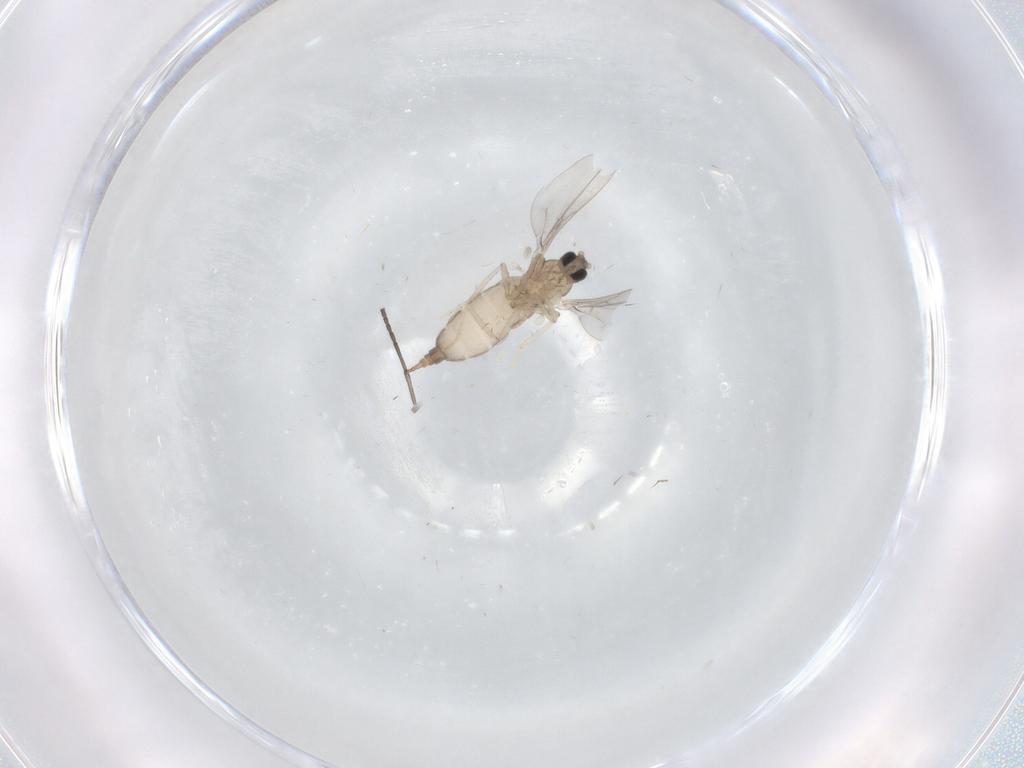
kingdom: Animalia
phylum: Arthropoda
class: Insecta
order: Diptera
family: Cecidomyiidae
